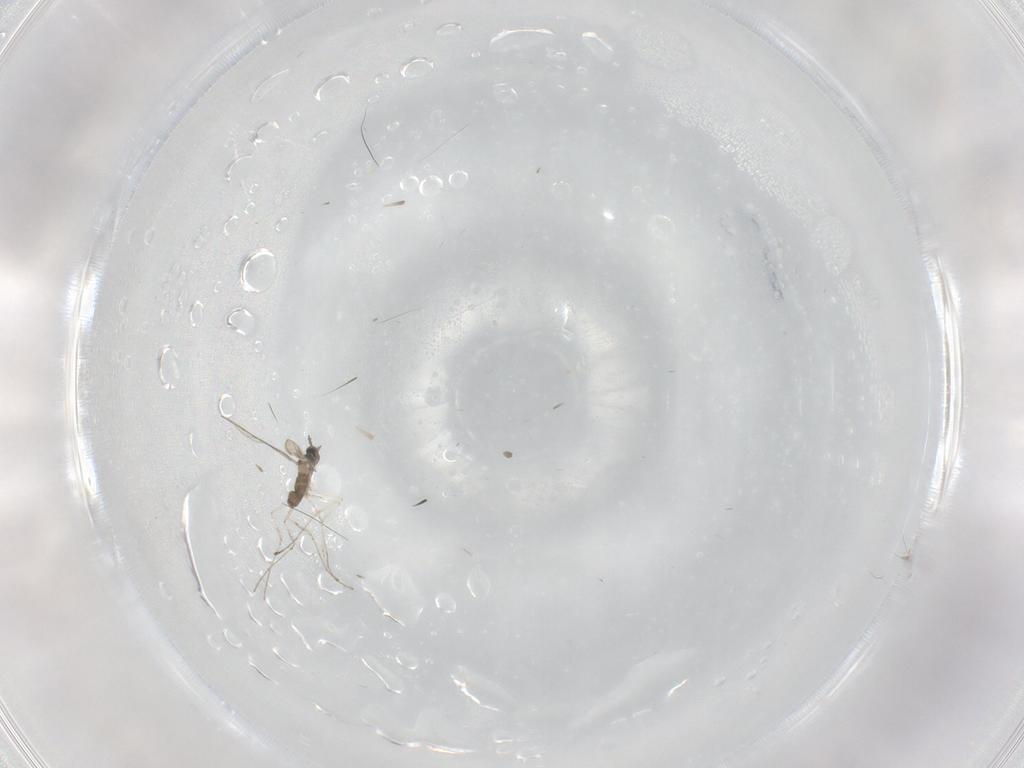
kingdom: Animalia
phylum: Arthropoda
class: Insecta
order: Diptera
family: Cecidomyiidae
